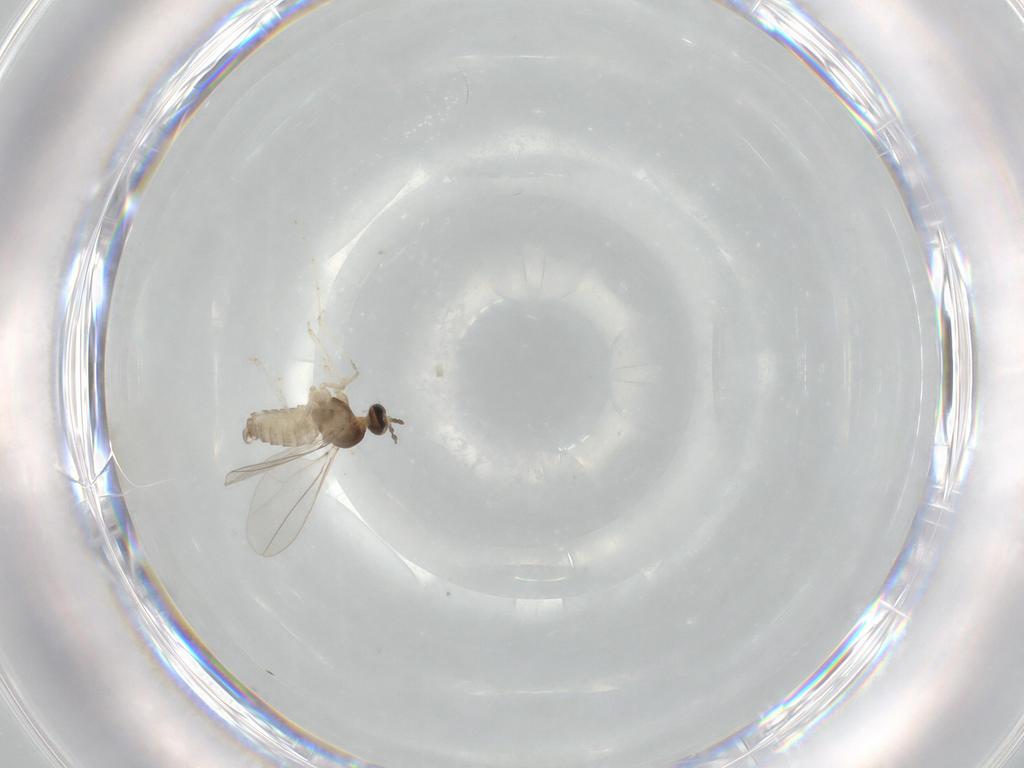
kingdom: Animalia
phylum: Arthropoda
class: Insecta
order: Diptera
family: Cecidomyiidae
